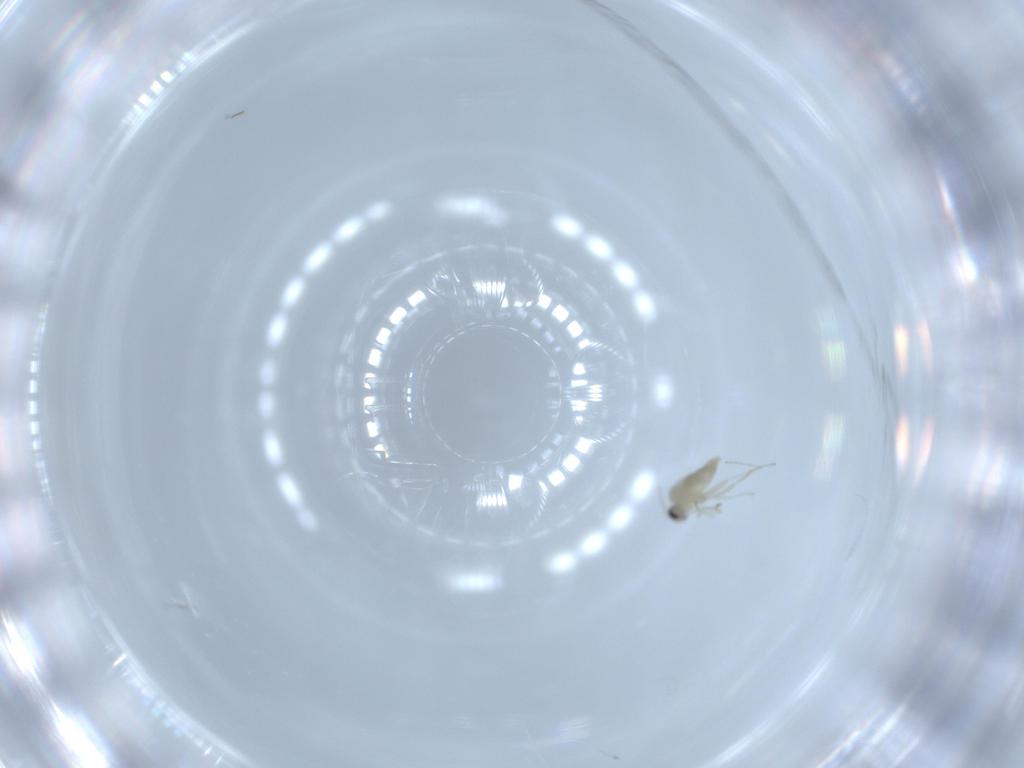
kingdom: Animalia
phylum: Arthropoda
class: Insecta
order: Diptera
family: Cecidomyiidae
